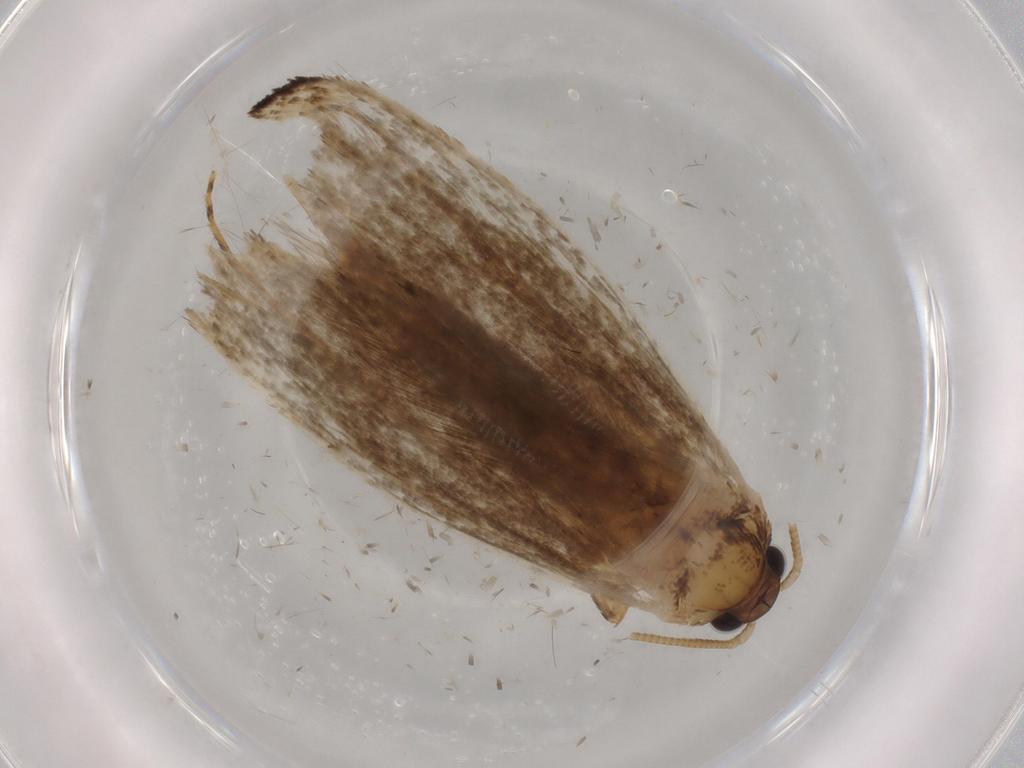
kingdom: Animalia
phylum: Arthropoda
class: Insecta
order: Lepidoptera
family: Tineidae
